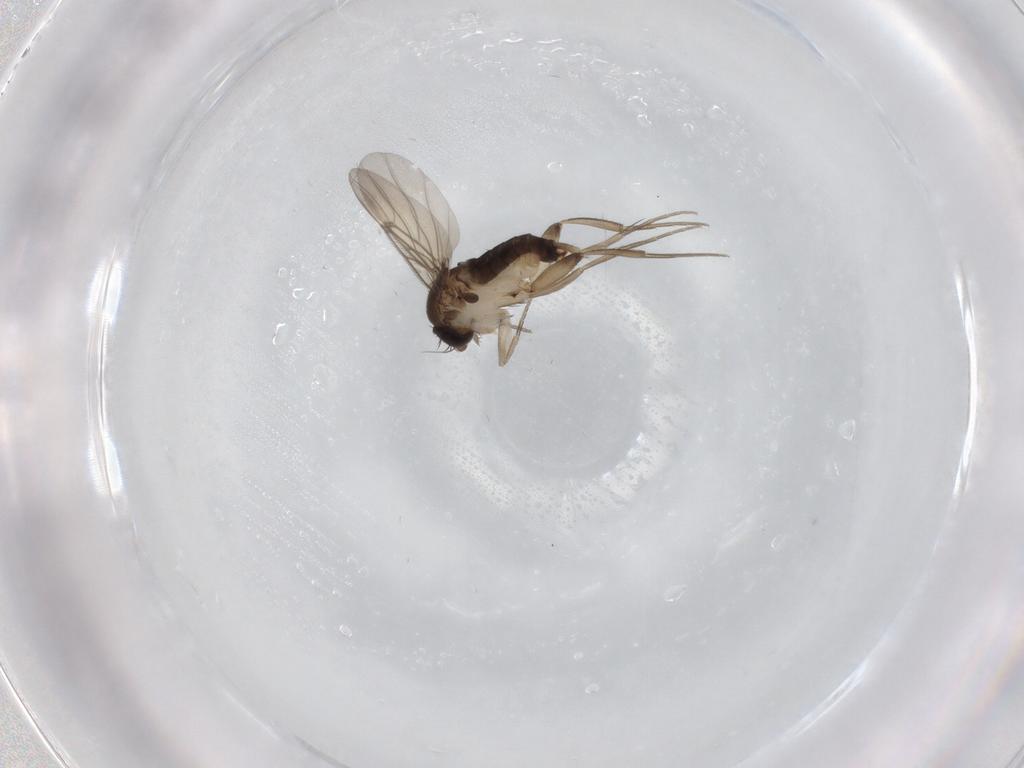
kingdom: Animalia
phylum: Arthropoda
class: Insecta
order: Diptera
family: Phoridae
